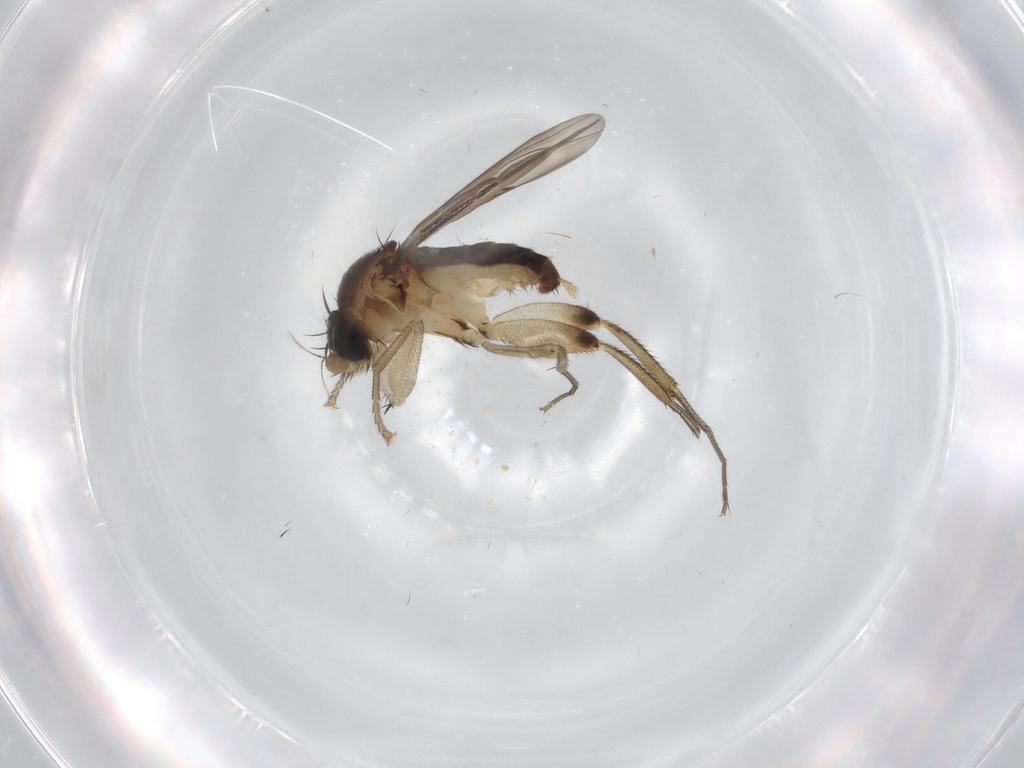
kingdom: Animalia
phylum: Arthropoda
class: Insecta
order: Diptera
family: Phoridae
